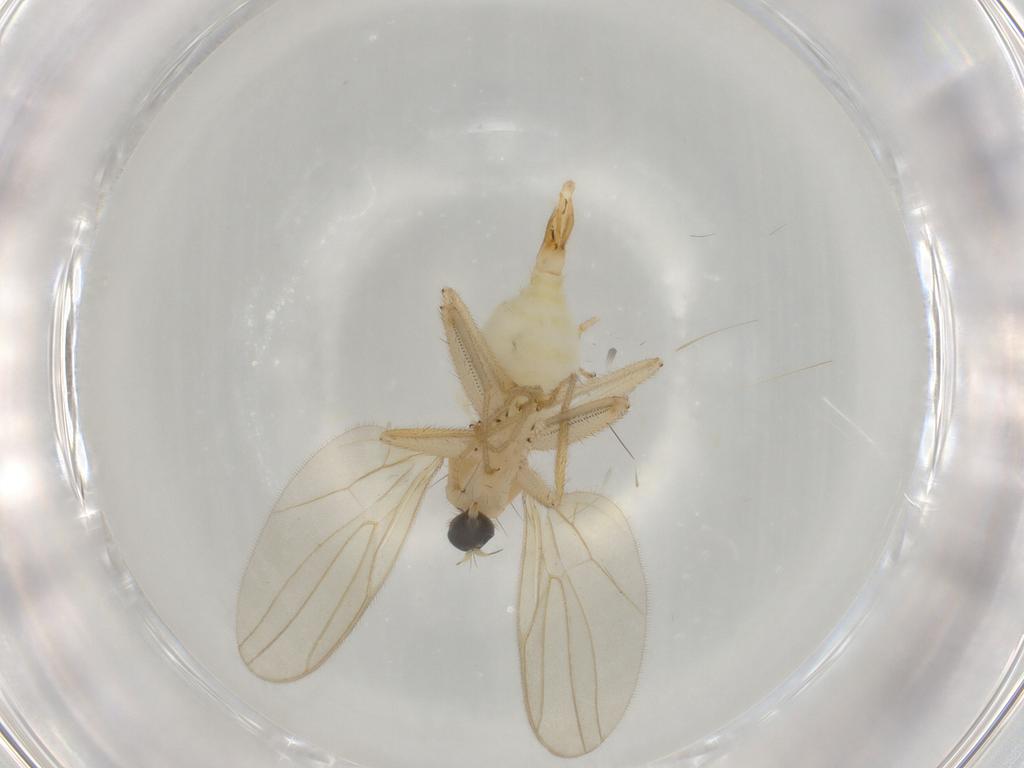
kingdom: Animalia
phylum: Arthropoda
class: Insecta
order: Diptera
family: Hybotidae
